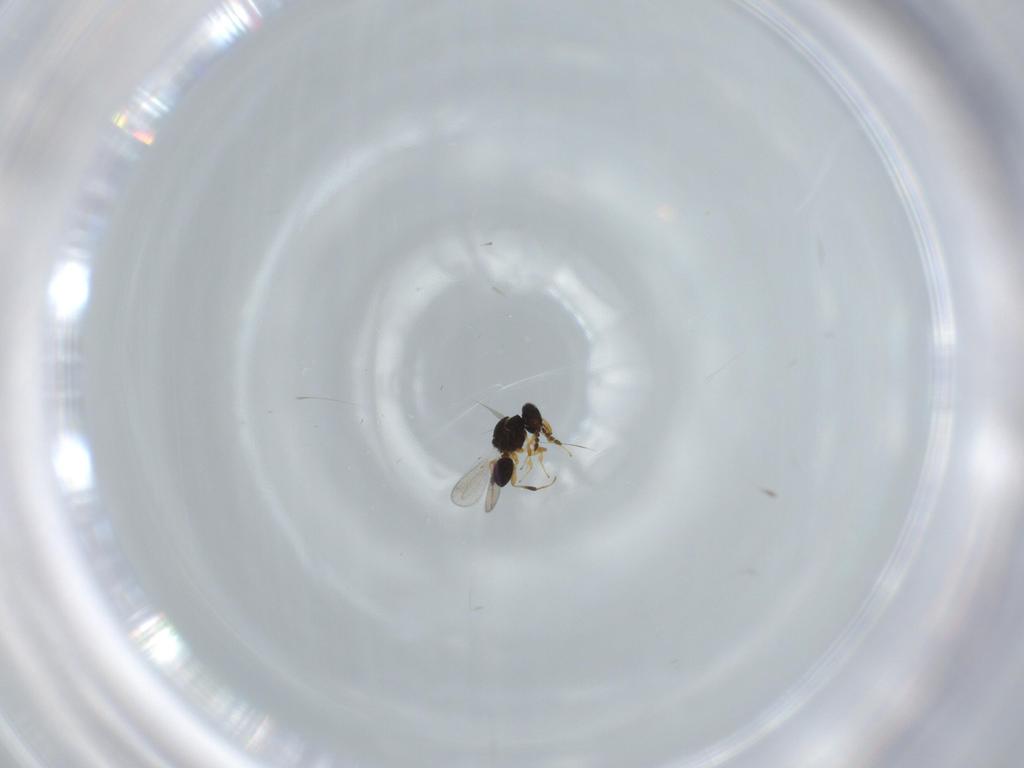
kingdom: Animalia
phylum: Arthropoda
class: Insecta
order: Hymenoptera
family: Platygastridae
